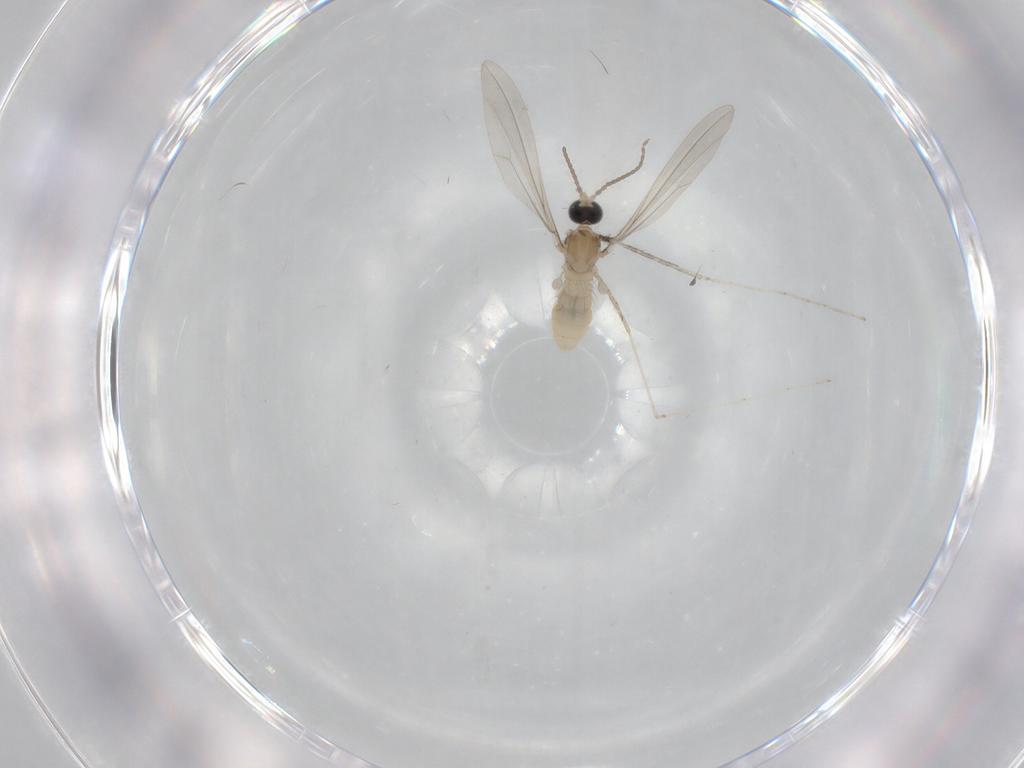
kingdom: Animalia
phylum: Arthropoda
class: Insecta
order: Diptera
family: Cecidomyiidae
